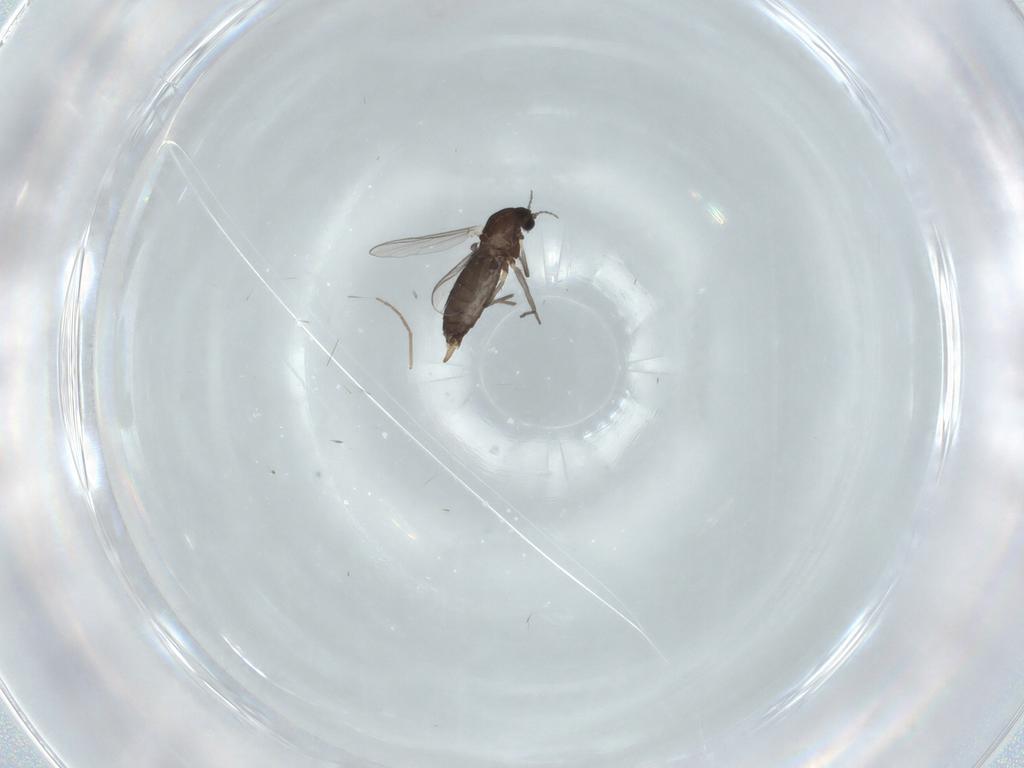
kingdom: Animalia
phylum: Arthropoda
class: Insecta
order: Diptera
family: Chironomidae
